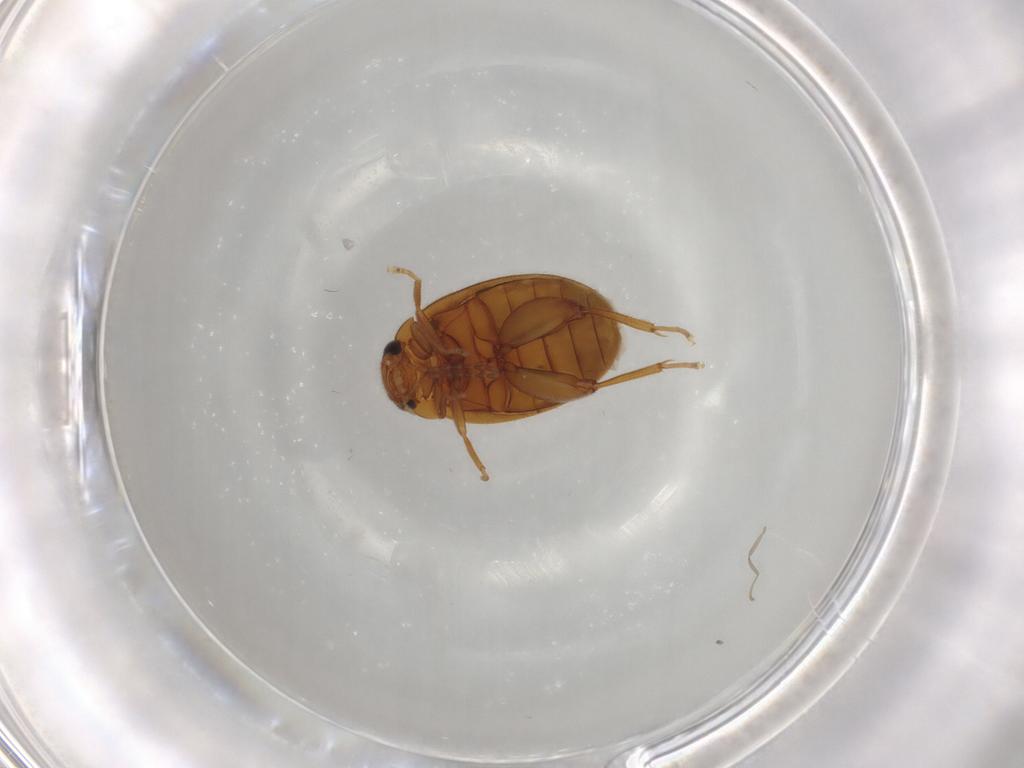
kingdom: Animalia
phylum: Arthropoda
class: Insecta
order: Coleoptera
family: Scirtidae
